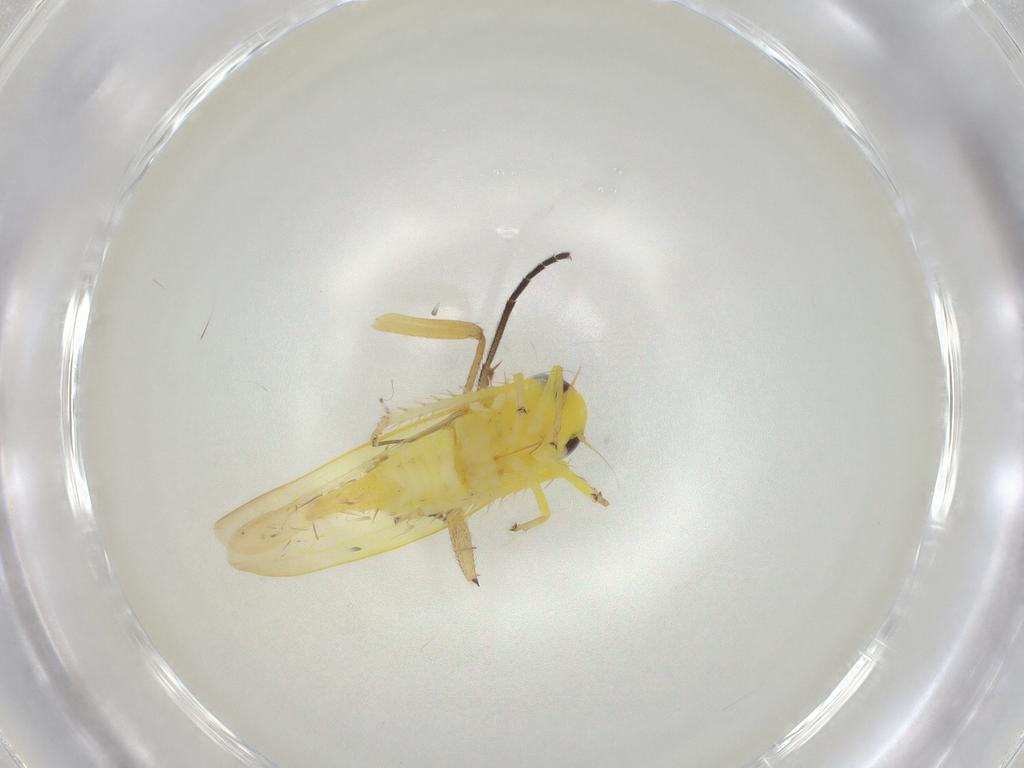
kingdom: Animalia
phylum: Arthropoda
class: Insecta
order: Hemiptera
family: Cicadellidae
